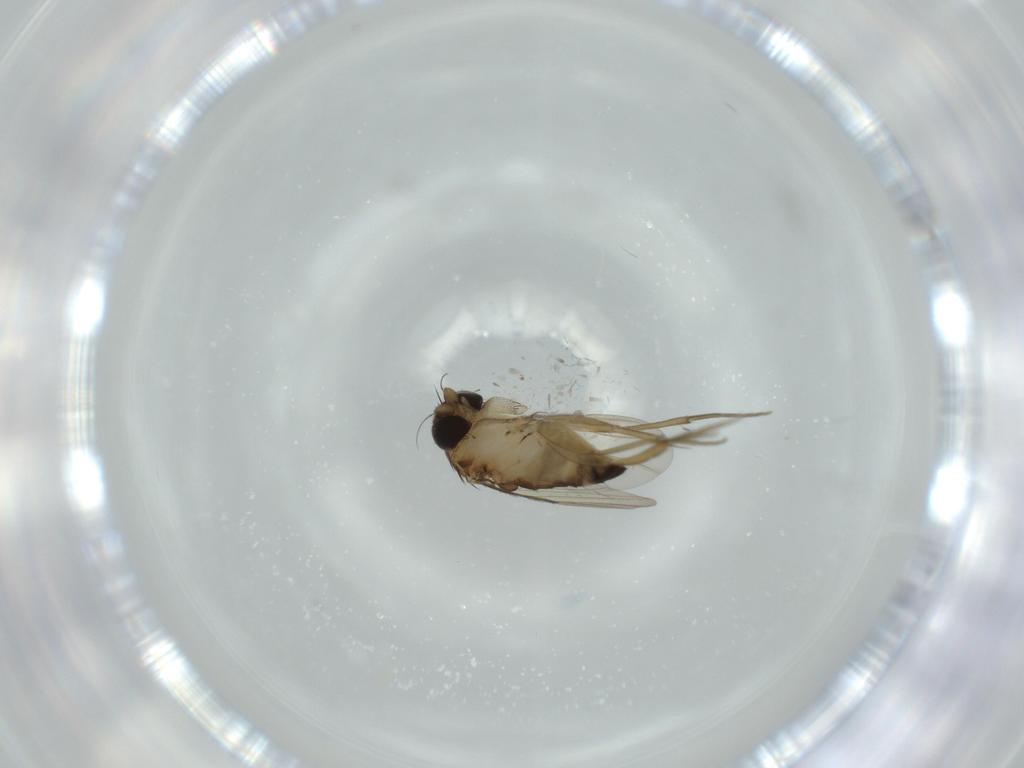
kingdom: Animalia
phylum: Arthropoda
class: Insecta
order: Diptera
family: Phoridae
